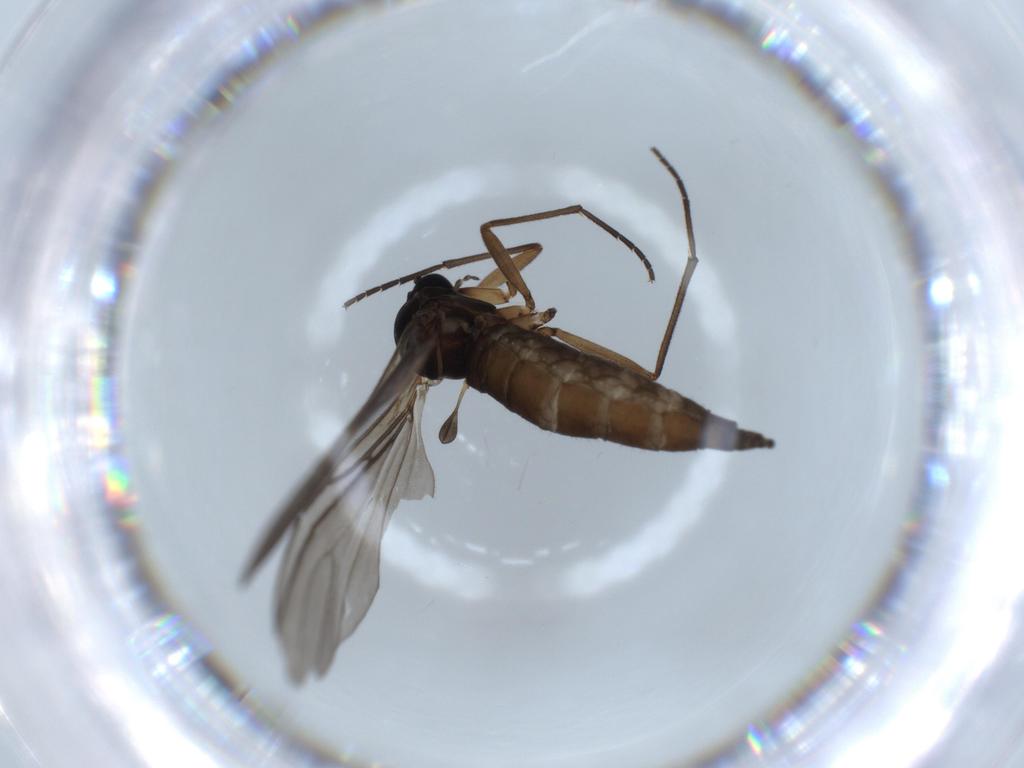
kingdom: Animalia
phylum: Arthropoda
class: Insecta
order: Diptera
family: Sciaridae
